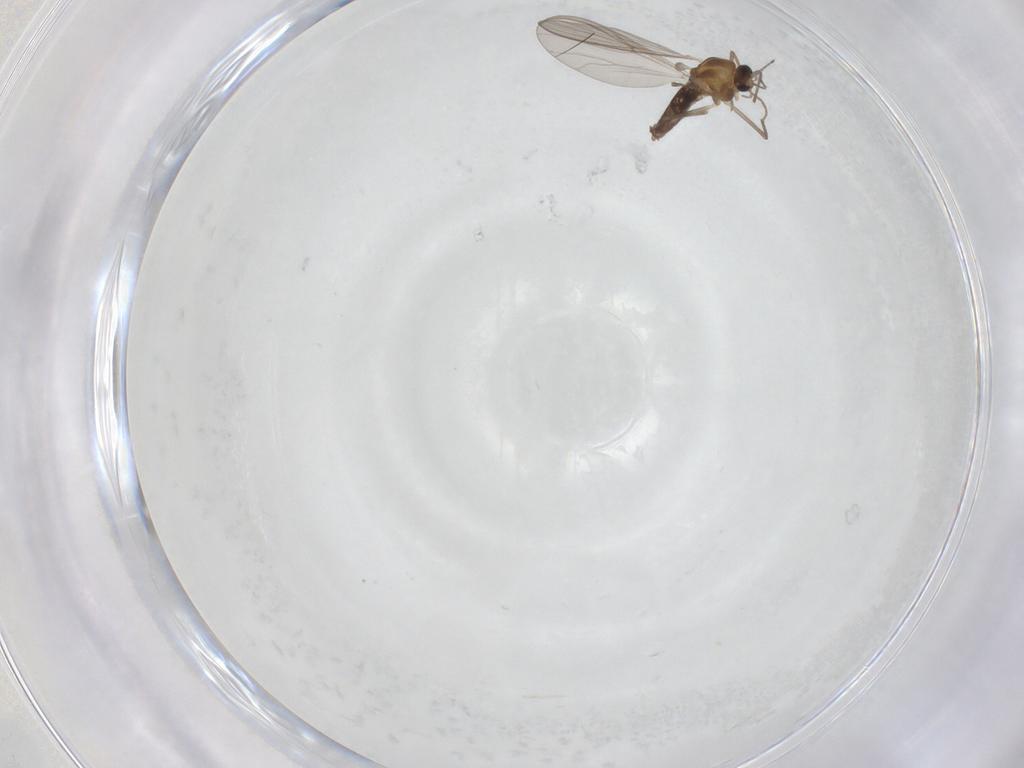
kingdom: Animalia
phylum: Arthropoda
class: Insecta
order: Diptera
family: Chironomidae
